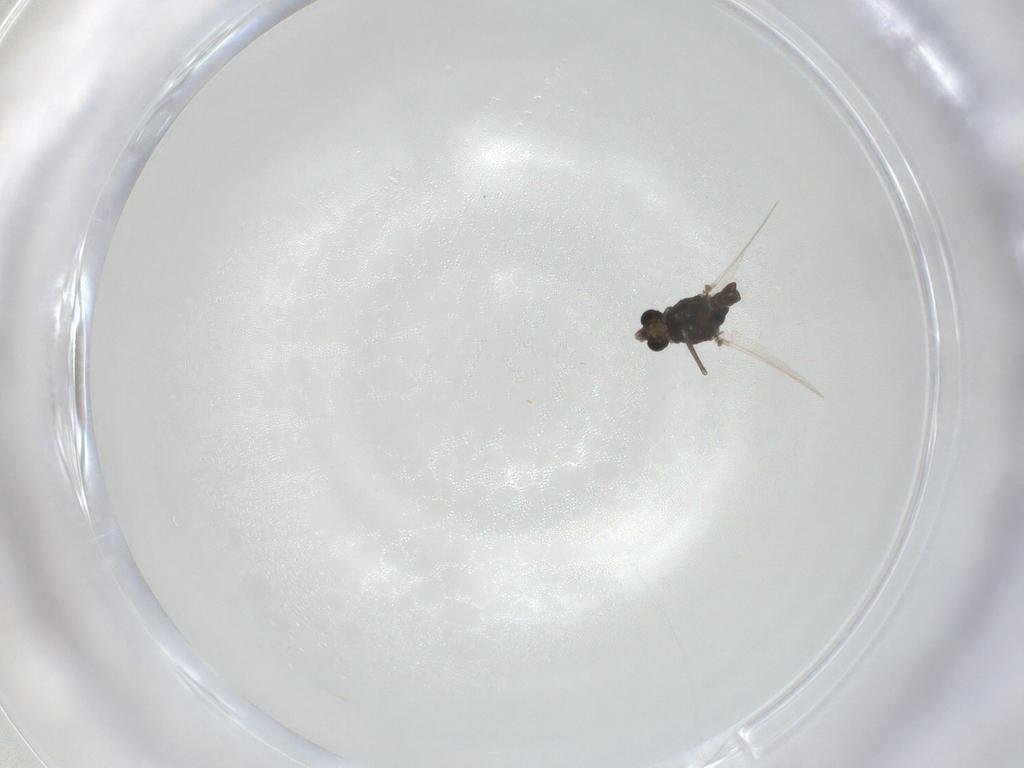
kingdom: Animalia
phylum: Arthropoda
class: Insecta
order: Diptera
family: Chironomidae
